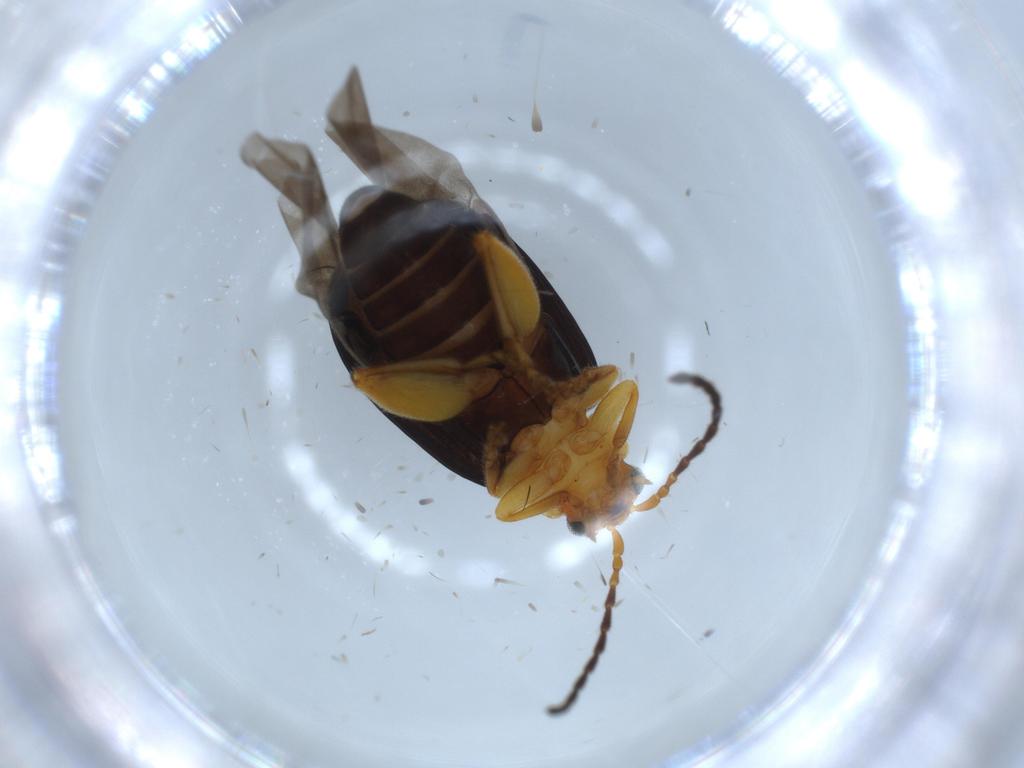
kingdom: Animalia
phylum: Arthropoda
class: Insecta
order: Coleoptera
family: Chrysomelidae
